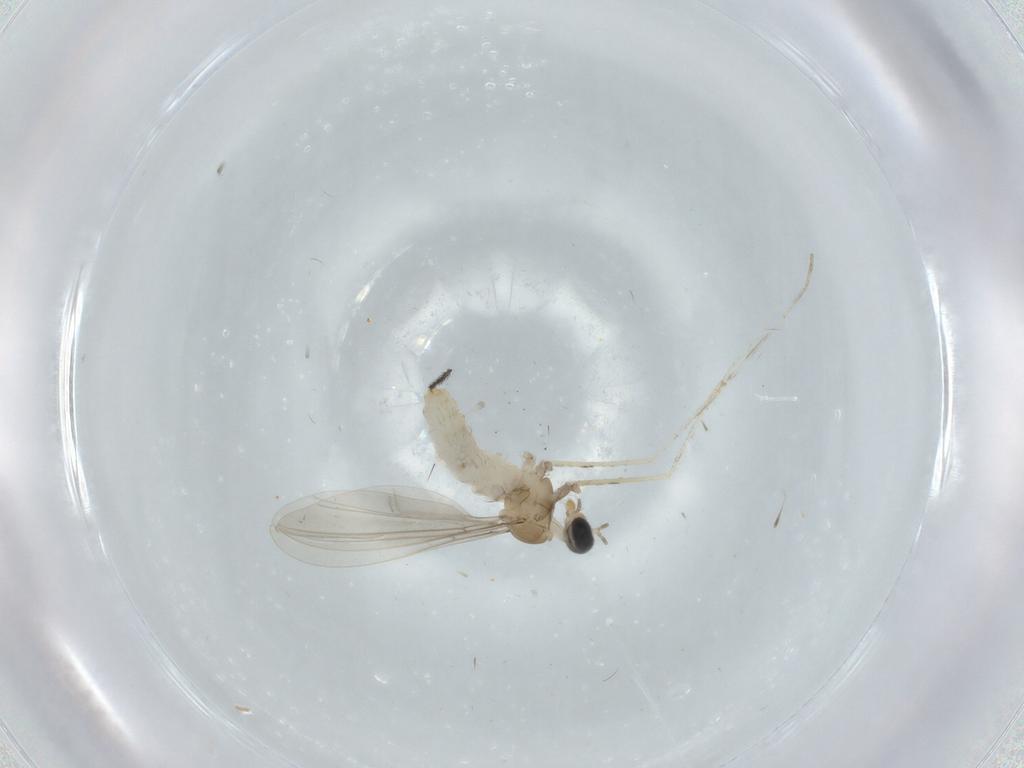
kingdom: Animalia
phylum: Arthropoda
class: Insecta
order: Diptera
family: Cecidomyiidae
